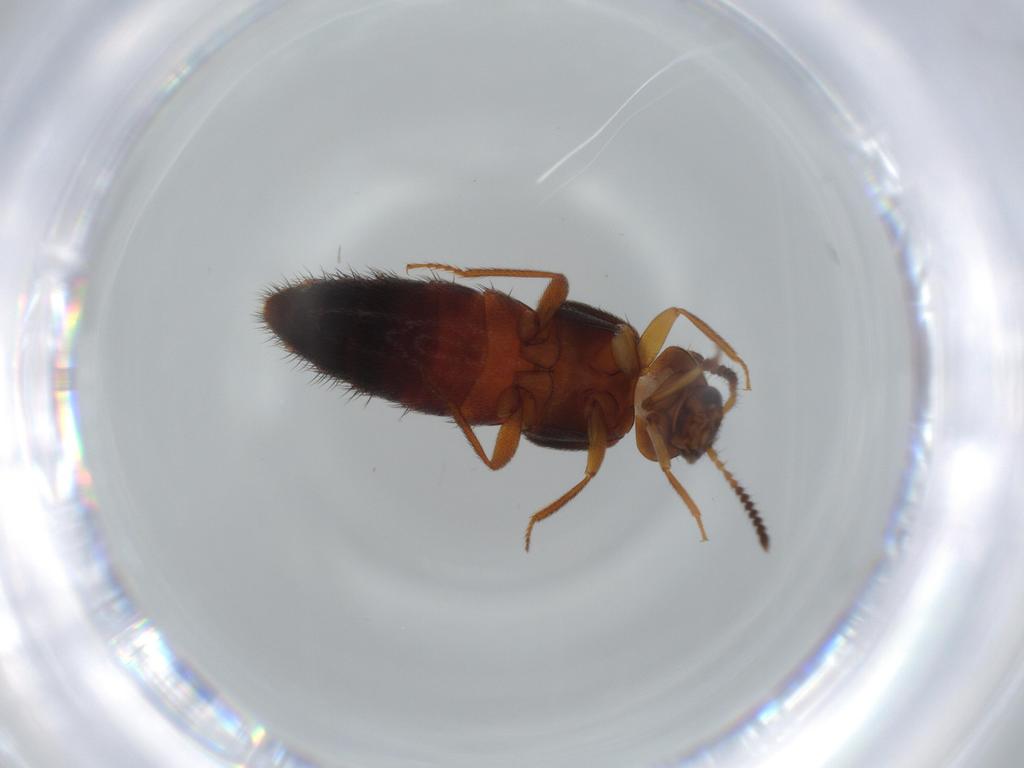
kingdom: Animalia
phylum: Arthropoda
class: Insecta
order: Coleoptera
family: Staphylinidae
